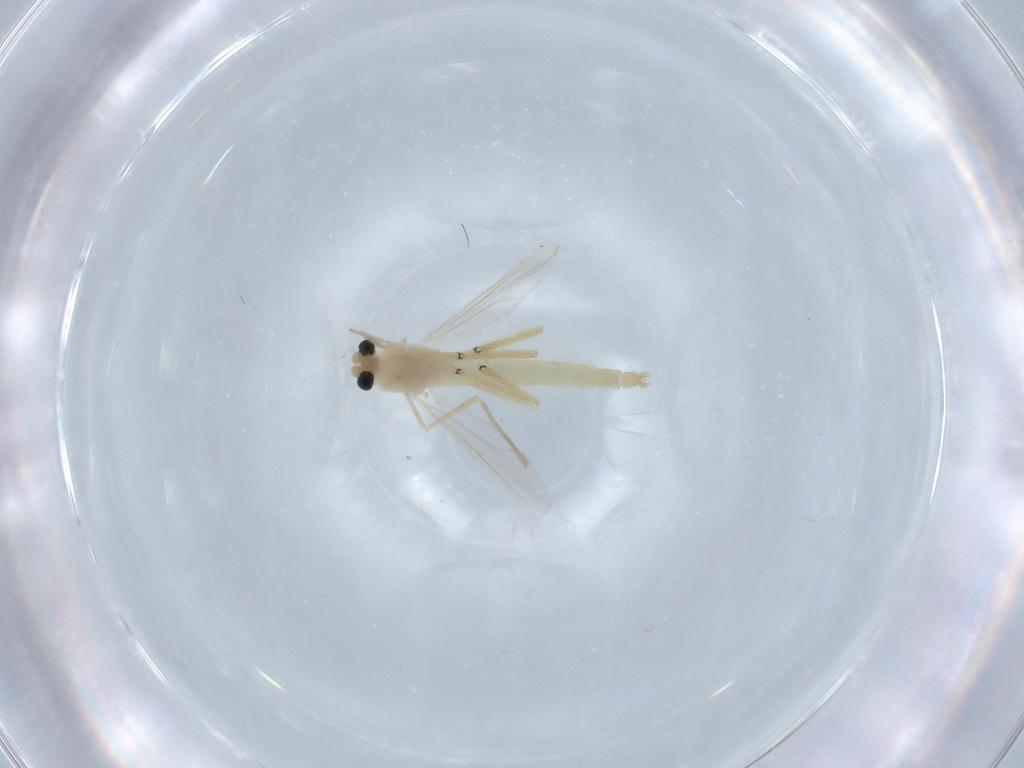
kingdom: Animalia
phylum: Arthropoda
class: Insecta
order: Diptera
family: Chironomidae
